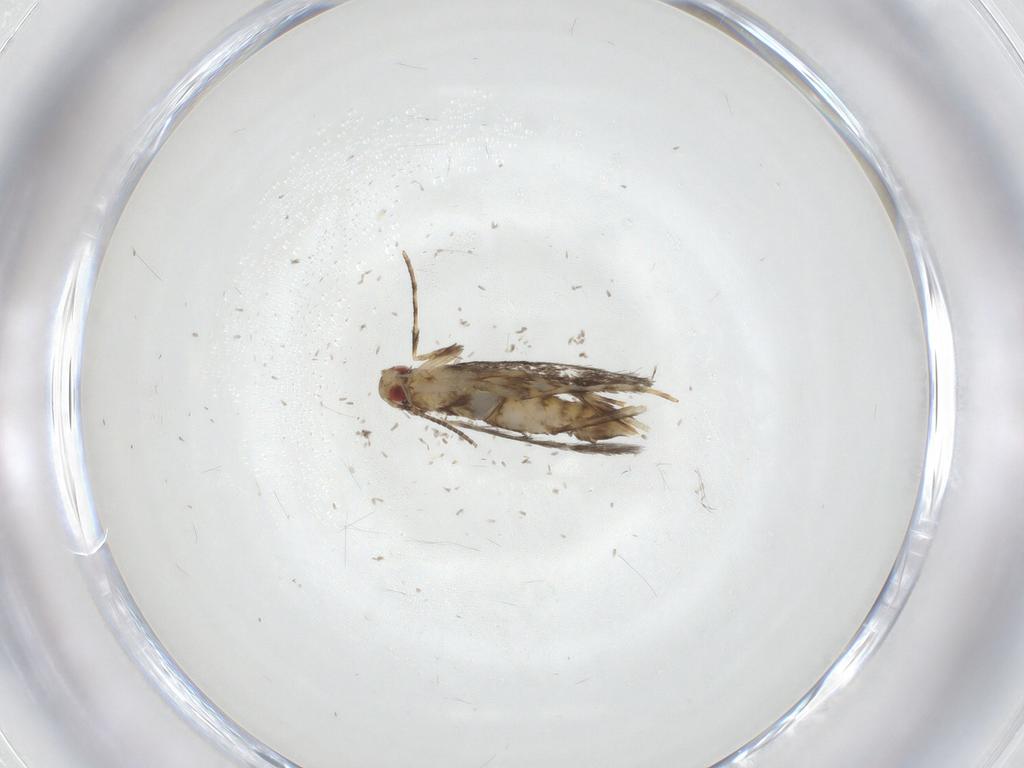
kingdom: Animalia
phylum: Arthropoda
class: Insecta
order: Lepidoptera
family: Gracillariidae
